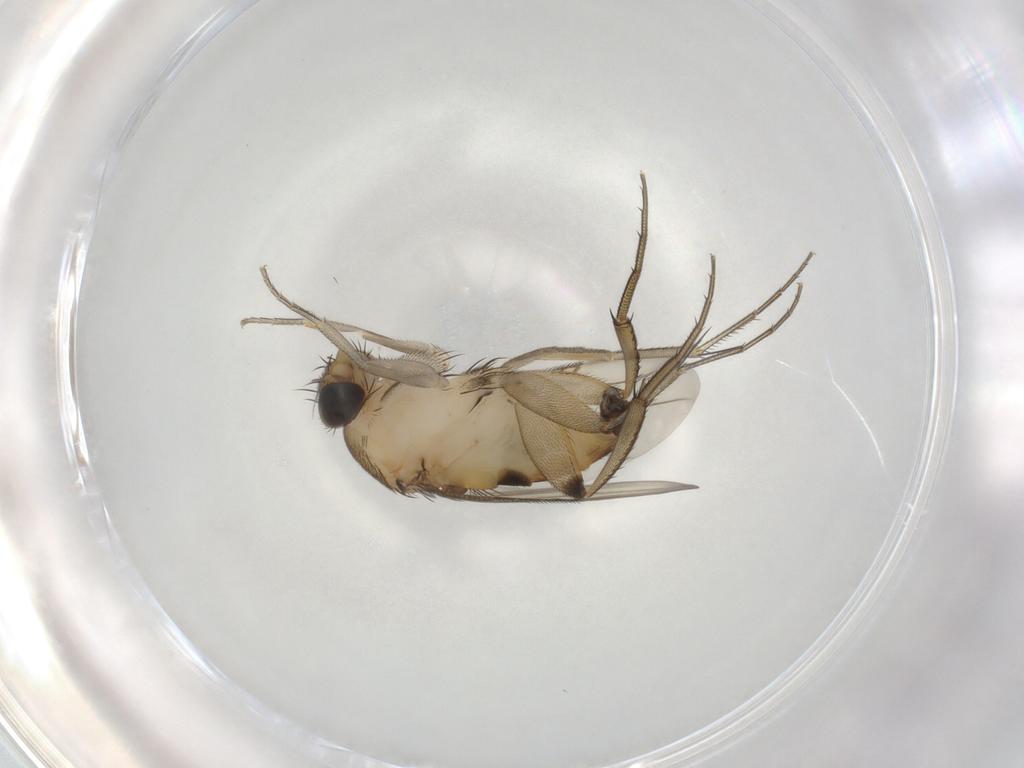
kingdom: Animalia
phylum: Arthropoda
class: Insecta
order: Diptera
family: Phoridae
